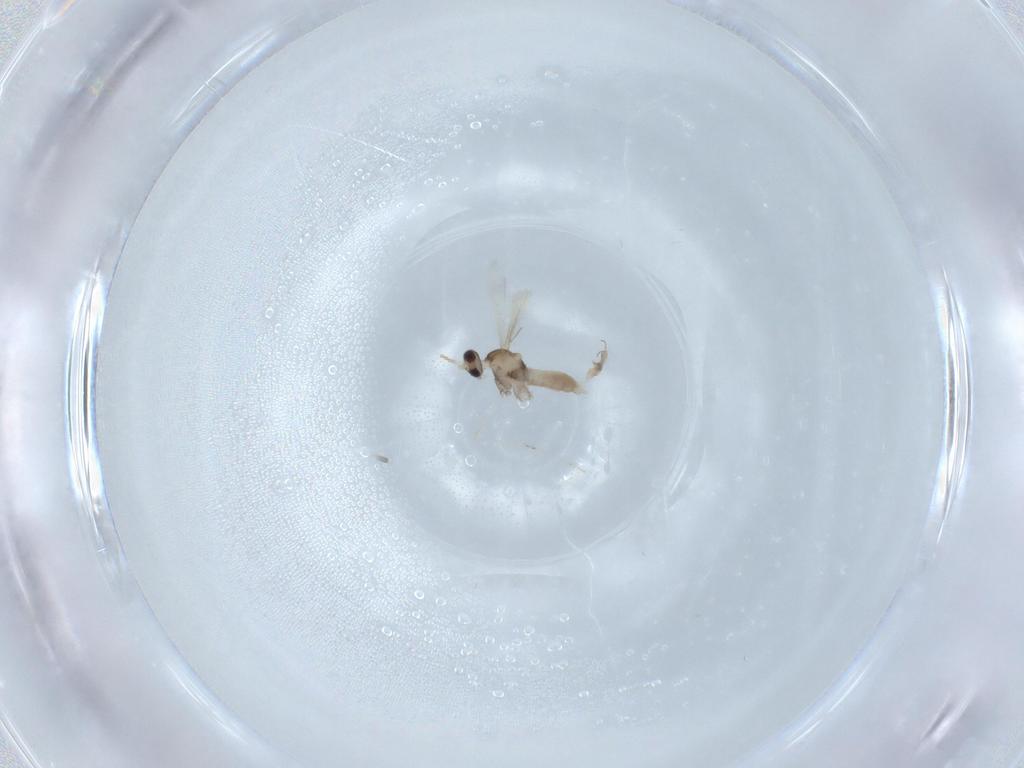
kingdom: Animalia
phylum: Arthropoda
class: Insecta
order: Diptera
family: Cecidomyiidae
